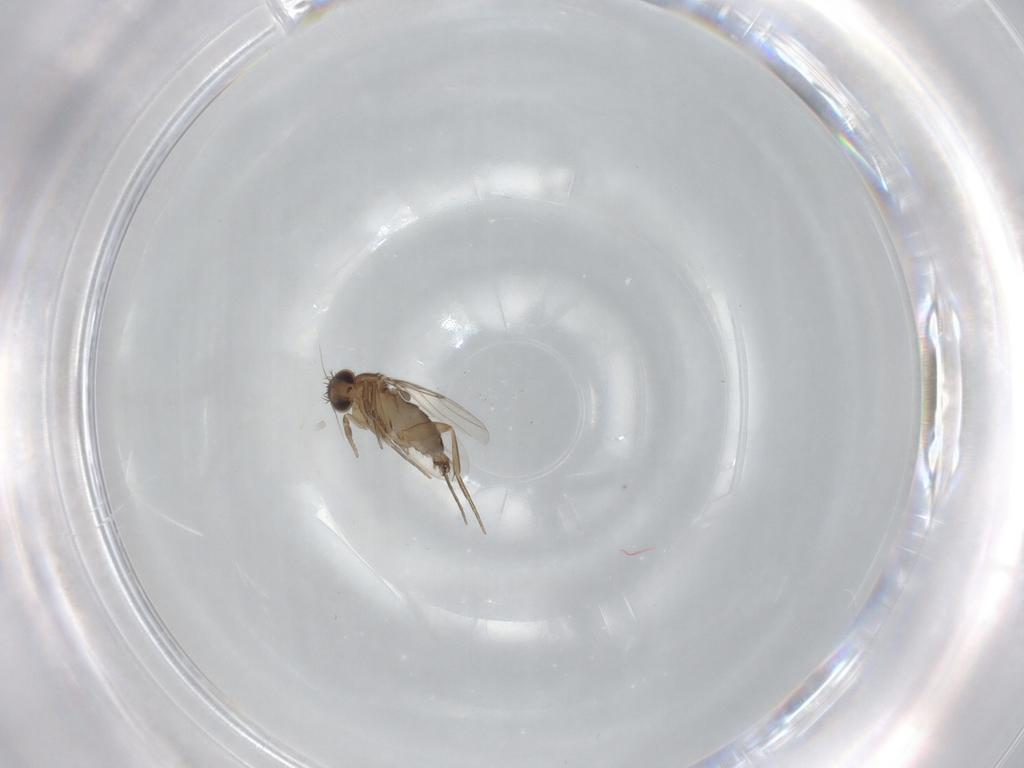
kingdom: Animalia
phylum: Arthropoda
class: Insecta
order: Diptera
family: Phoridae
